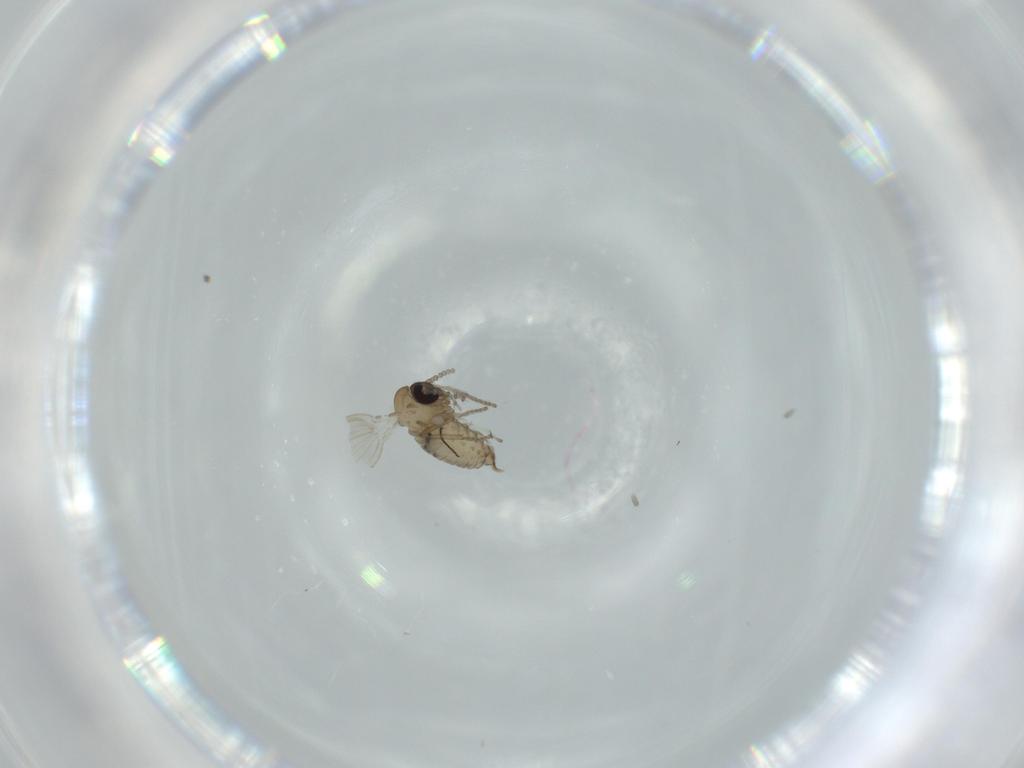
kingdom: Animalia
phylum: Arthropoda
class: Insecta
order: Diptera
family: Psychodidae
